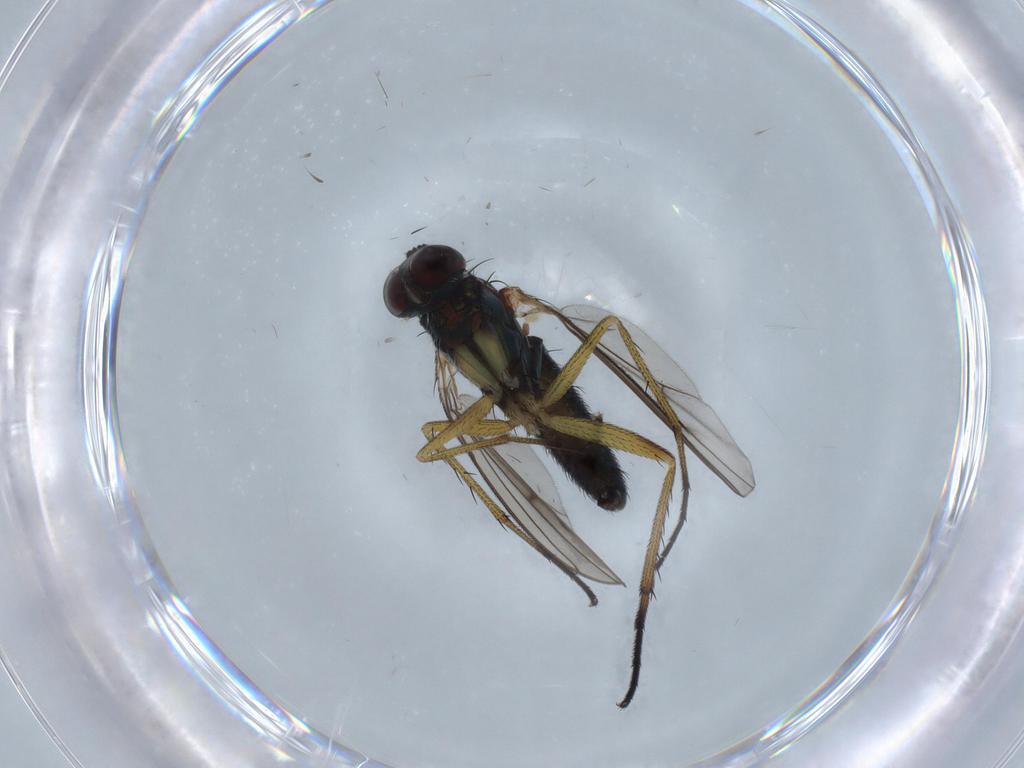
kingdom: Animalia
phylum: Arthropoda
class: Insecta
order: Diptera
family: Dolichopodidae
